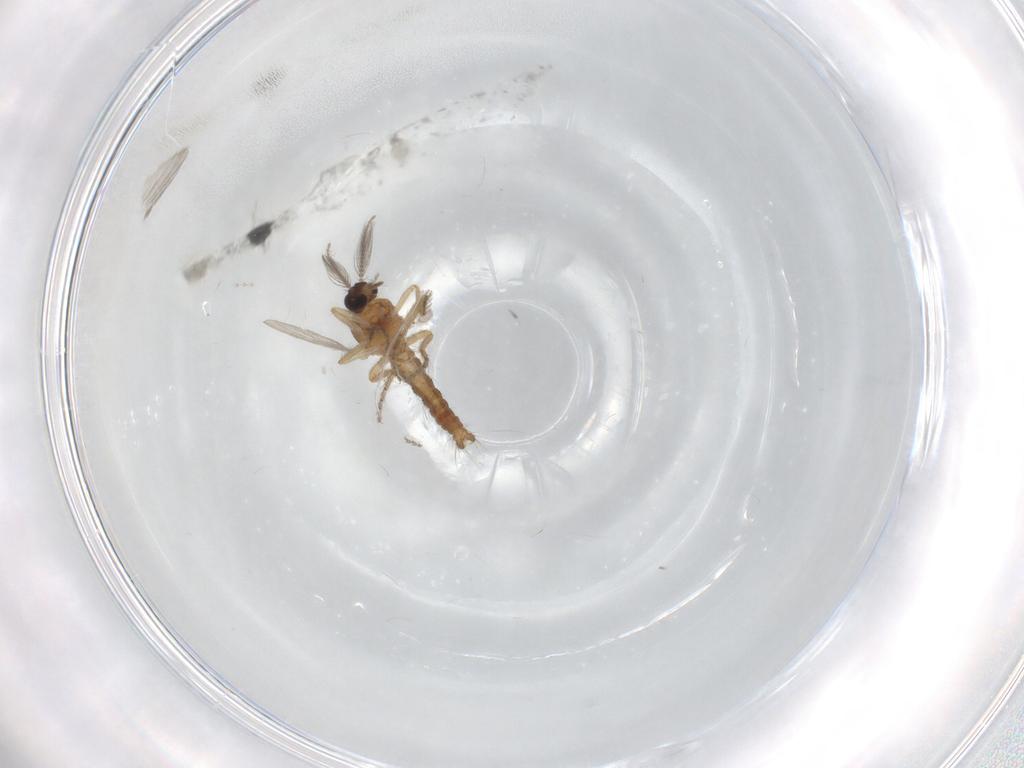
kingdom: Animalia
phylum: Arthropoda
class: Insecta
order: Diptera
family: Ceratopogonidae
